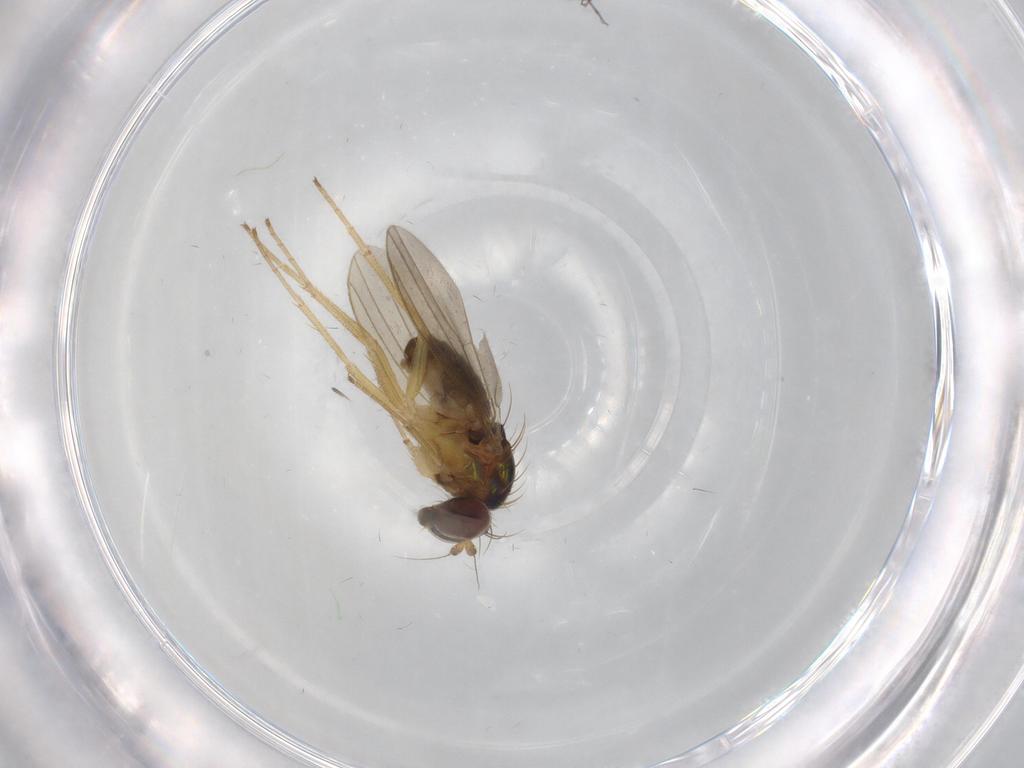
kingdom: Animalia
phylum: Arthropoda
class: Insecta
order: Diptera
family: Dolichopodidae
